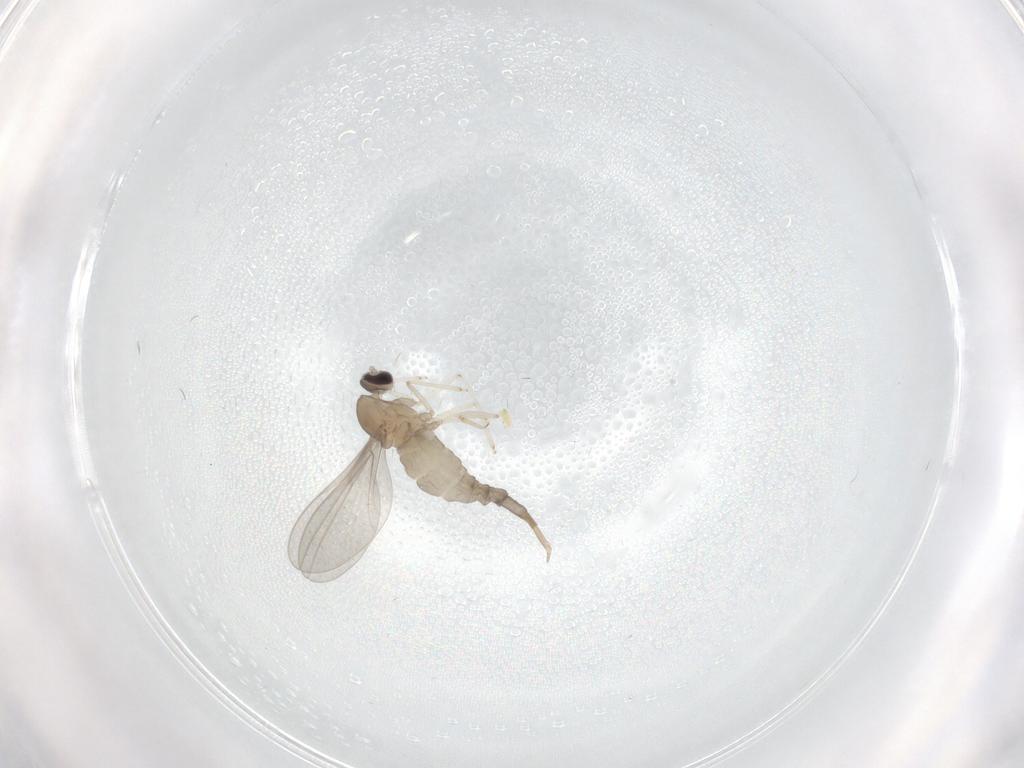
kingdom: Animalia
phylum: Arthropoda
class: Insecta
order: Diptera
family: Cecidomyiidae
